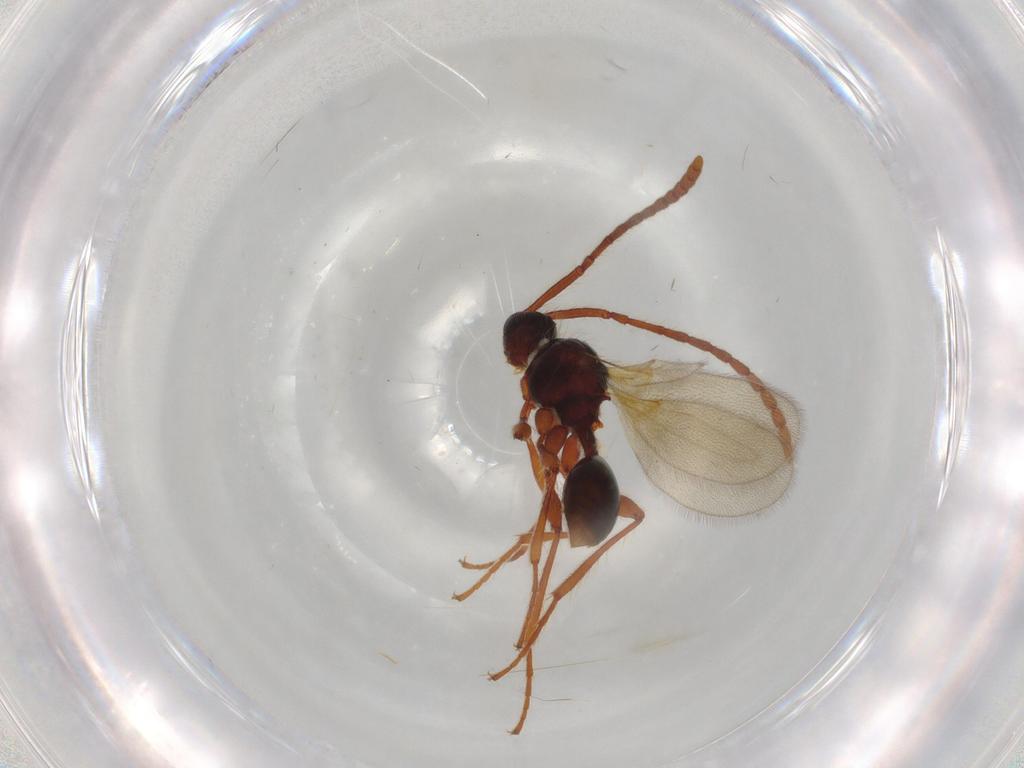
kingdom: Animalia
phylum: Arthropoda
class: Insecta
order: Hymenoptera
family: Diapriidae
